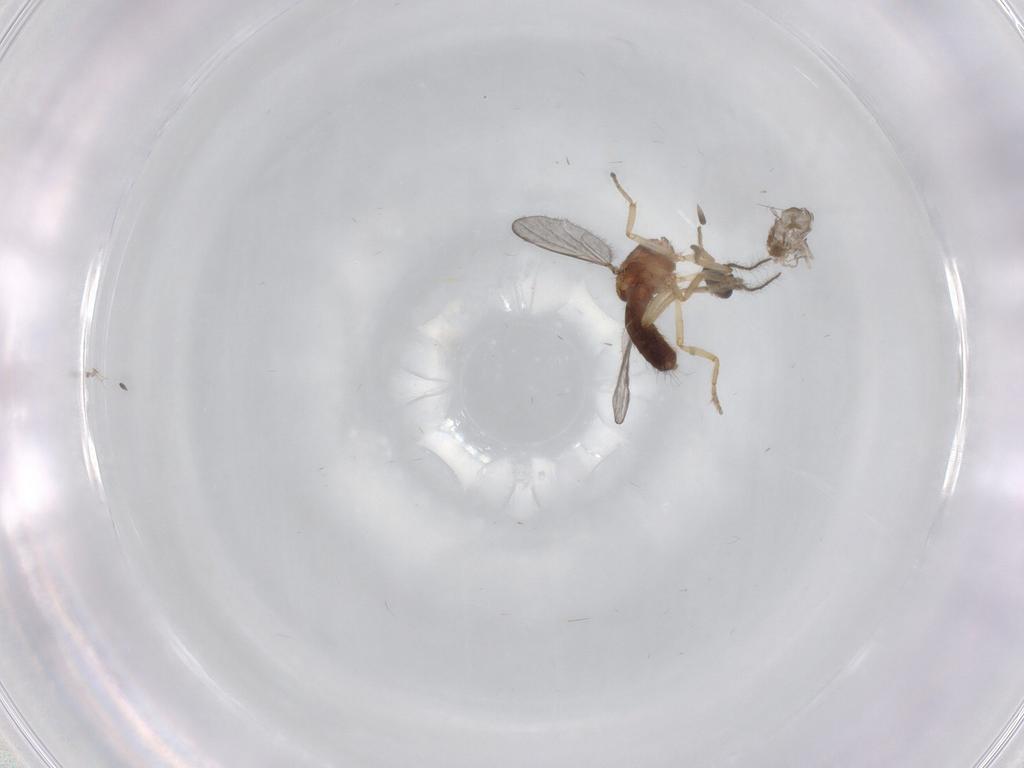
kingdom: Animalia
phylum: Arthropoda
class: Insecta
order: Diptera
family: Ceratopogonidae
